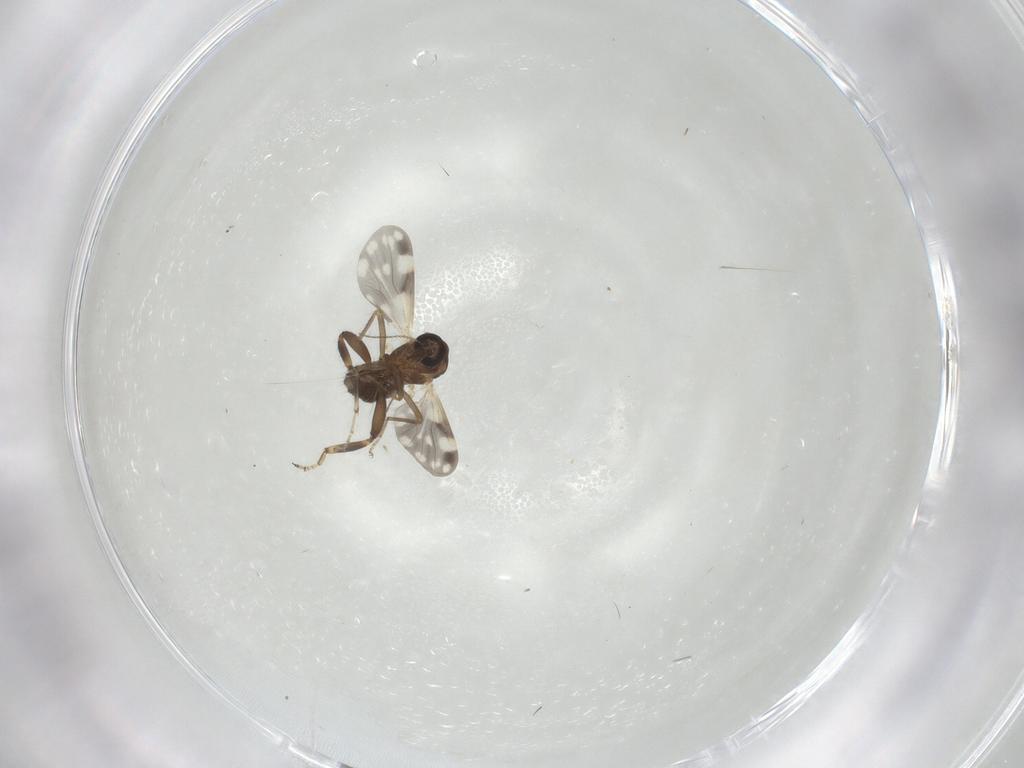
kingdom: Animalia
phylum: Arthropoda
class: Insecta
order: Diptera
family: Ceratopogonidae
